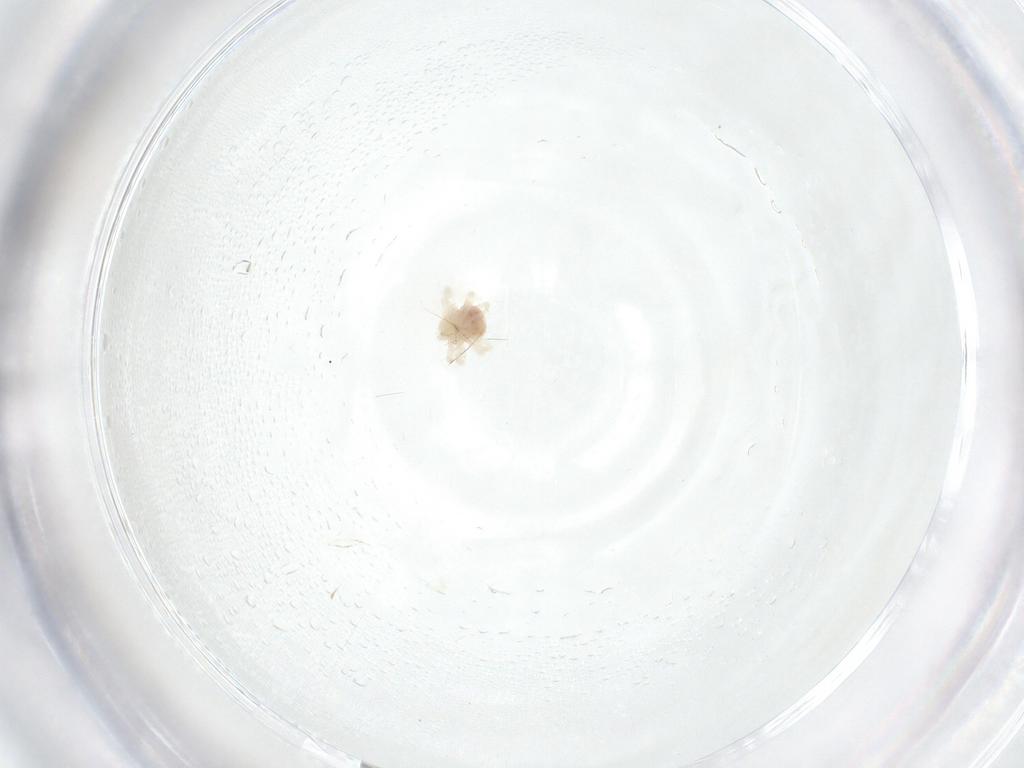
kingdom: Animalia
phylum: Arthropoda
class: Arachnida
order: Trombidiformes
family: Anystidae
